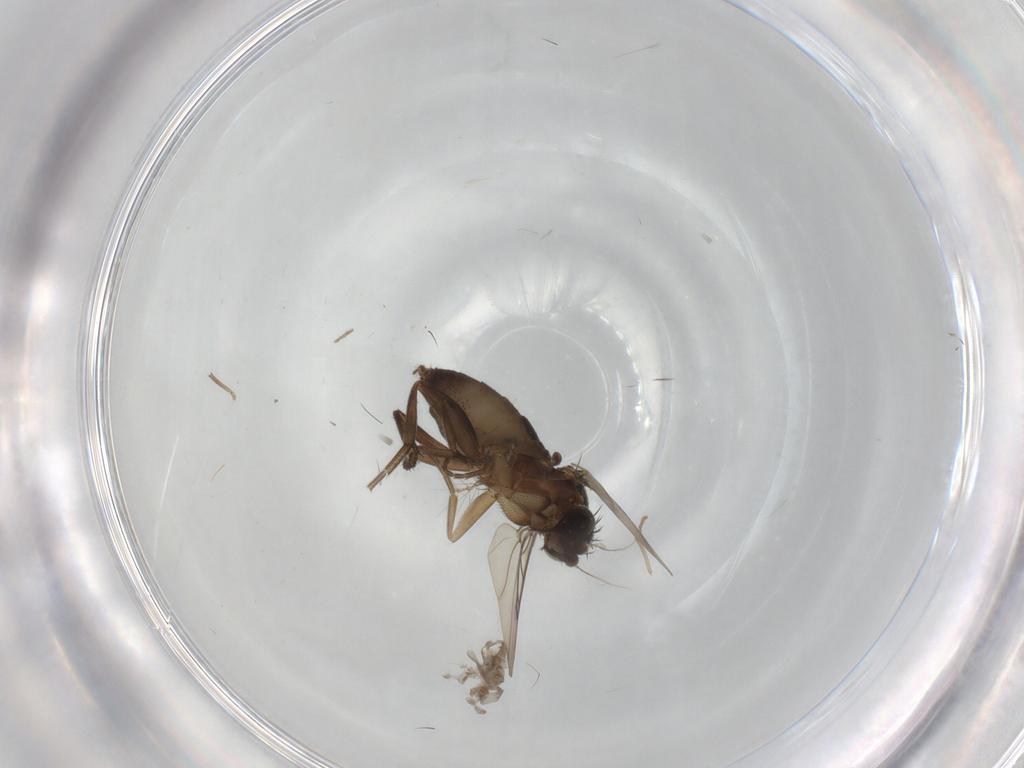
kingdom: Animalia
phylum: Arthropoda
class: Insecta
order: Diptera
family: Phoridae
